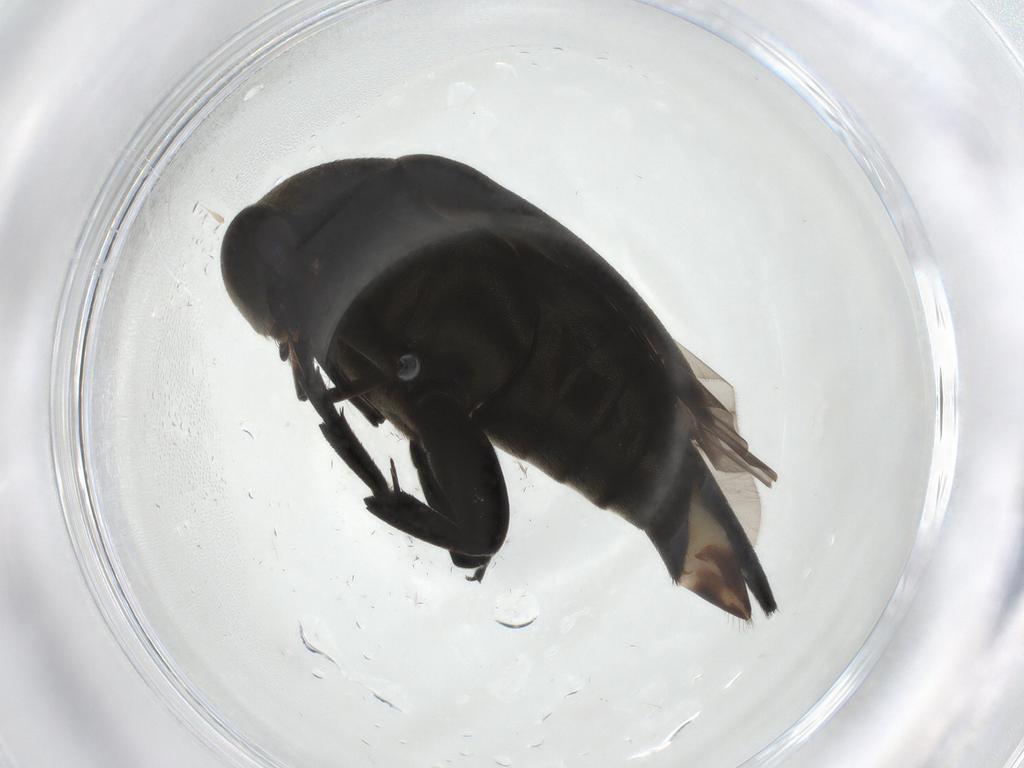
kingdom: Animalia
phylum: Arthropoda
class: Insecta
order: Coleoptera
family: Mordellidae
